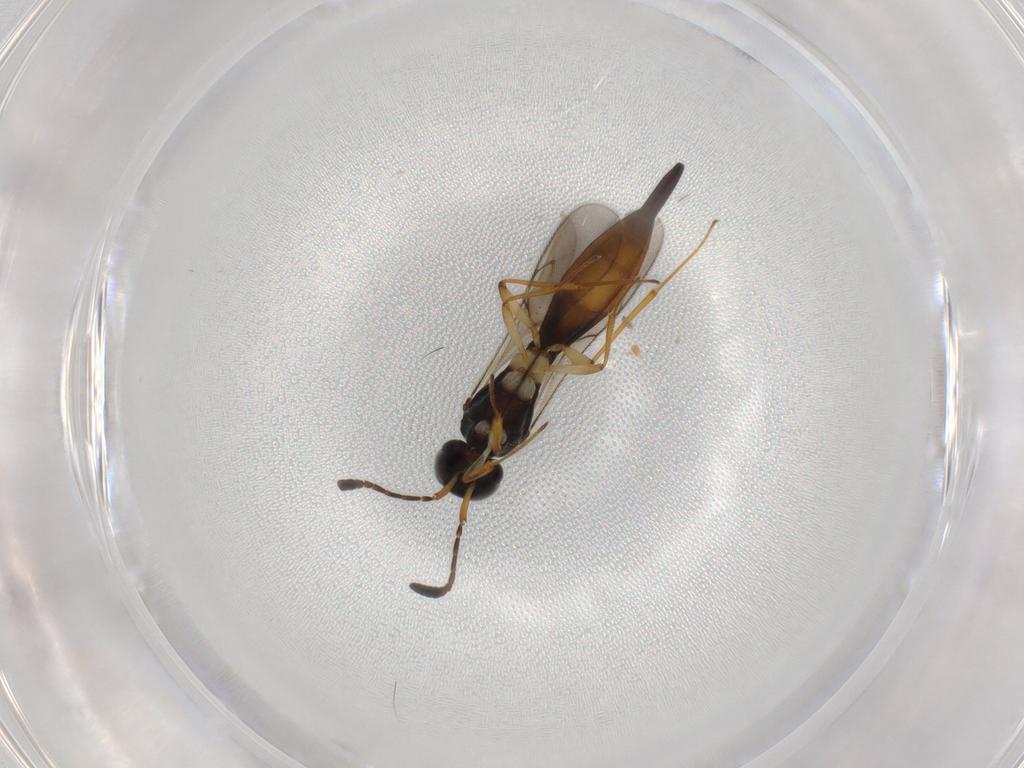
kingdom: Animalia
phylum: Arthropoda
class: Insecta
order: Hymenoptera
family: Scelionidae
